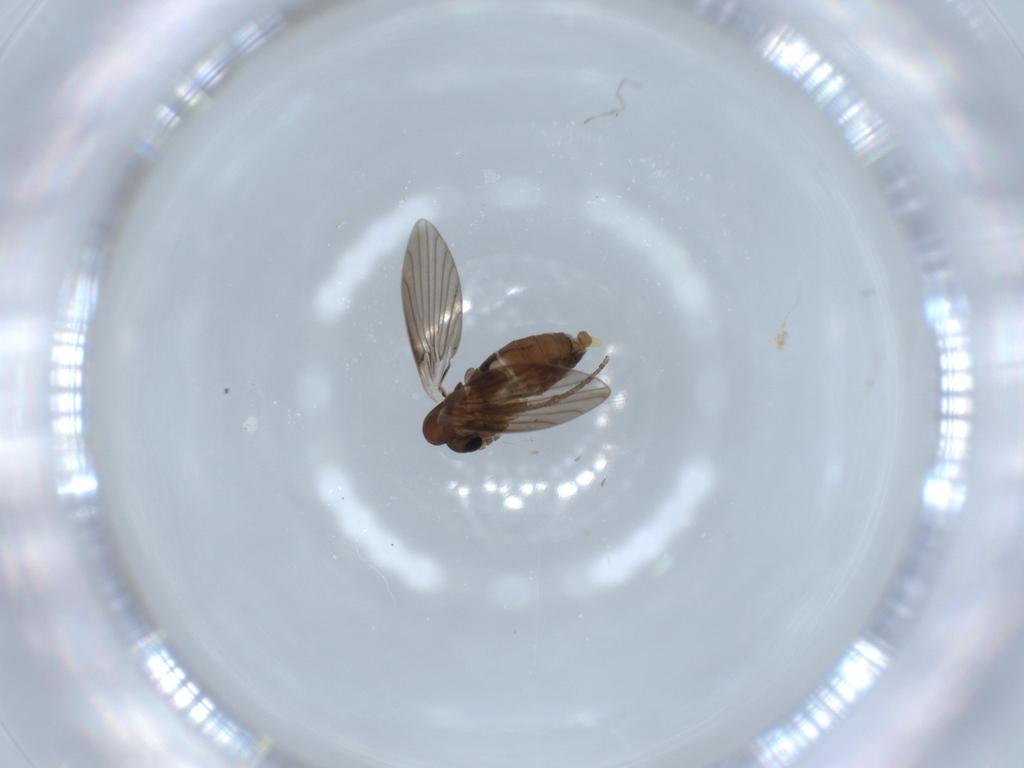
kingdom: Animalia
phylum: Arthropoda
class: Insecta
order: Diptera
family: Psychodidae
